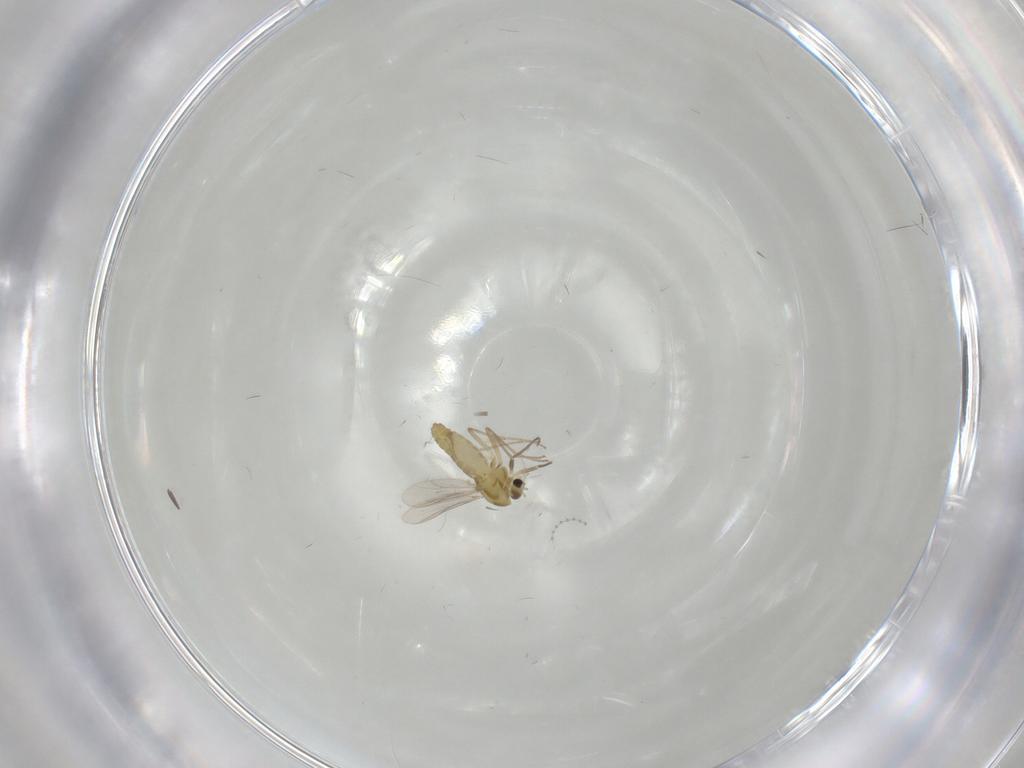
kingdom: Animalia
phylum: Arthropoda
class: Insecta
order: Diptera
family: Chironomidae
